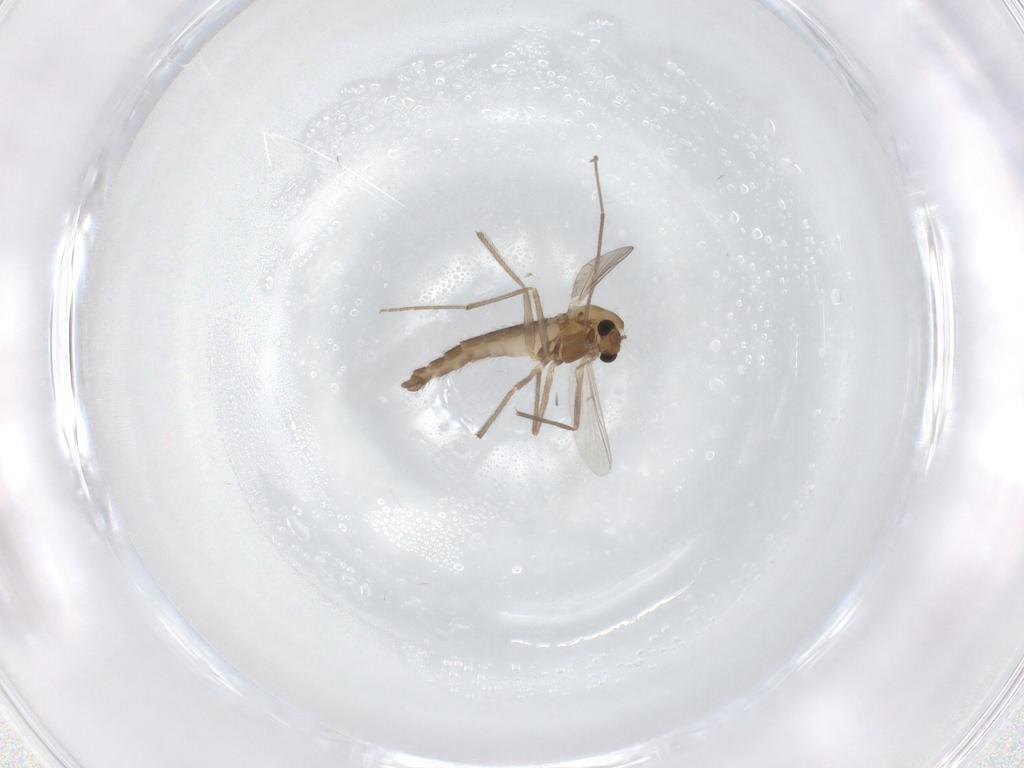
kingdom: Animalia
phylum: Arthropoda
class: Insecta
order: Diptera
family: Chironomidae
